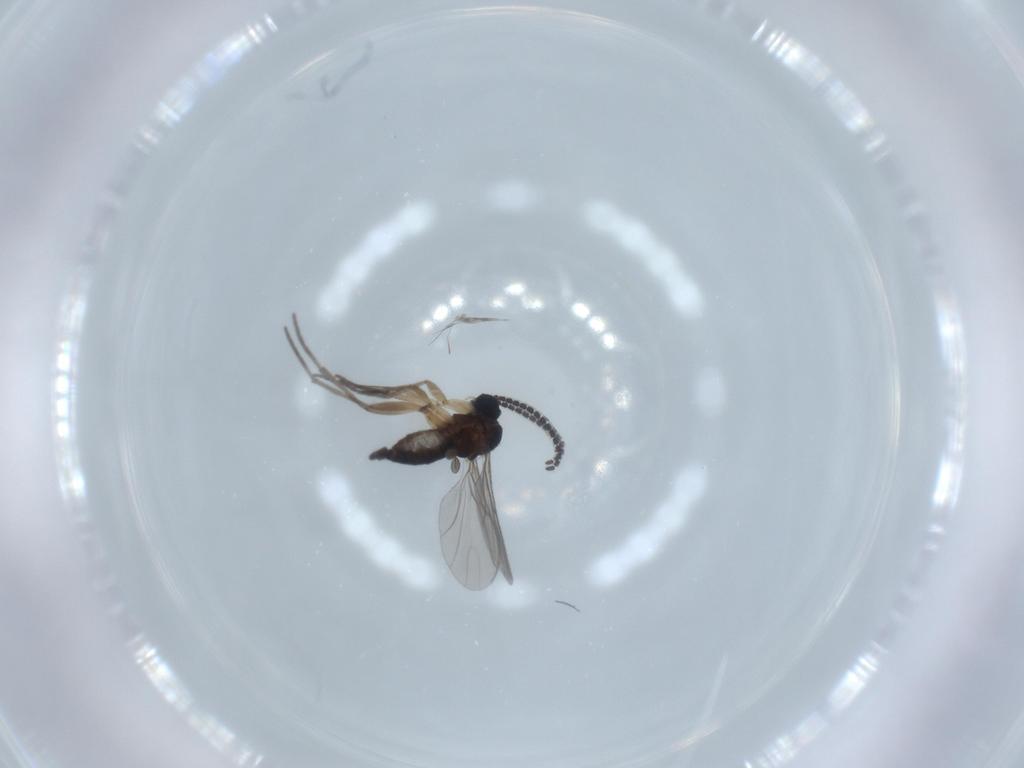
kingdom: Animalia
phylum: Arthropoda
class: Insecta
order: Diptera
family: Sciaridae
